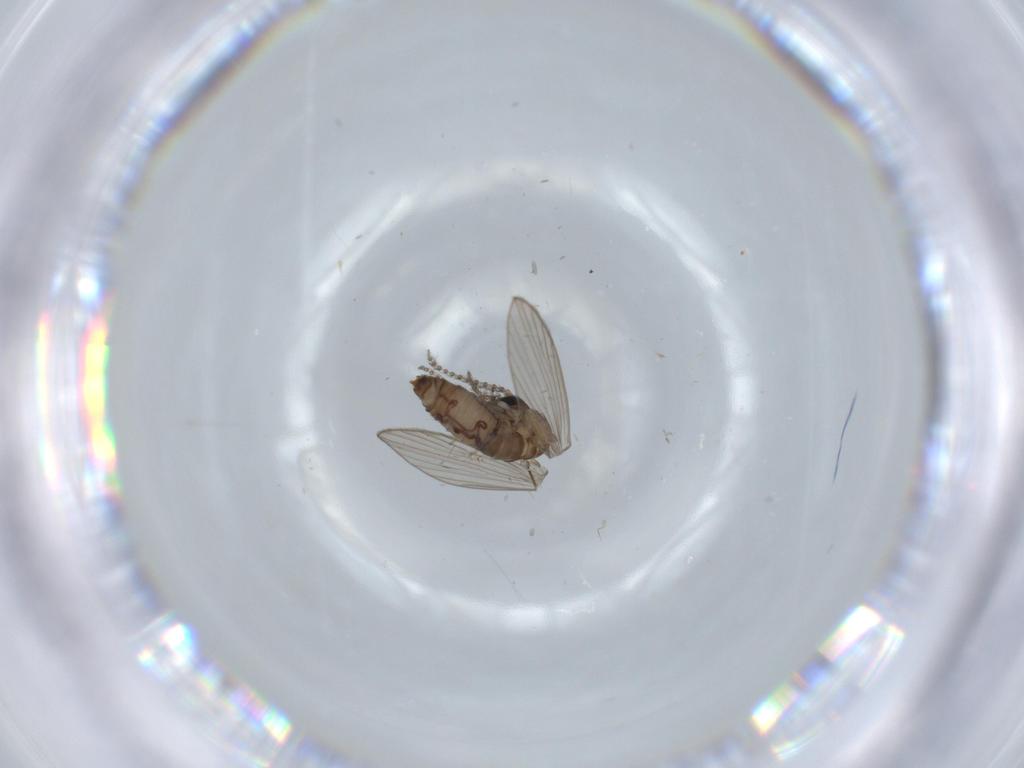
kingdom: Animalia
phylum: Arthropoda
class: Insecta
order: Diptera
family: Psychodidae
